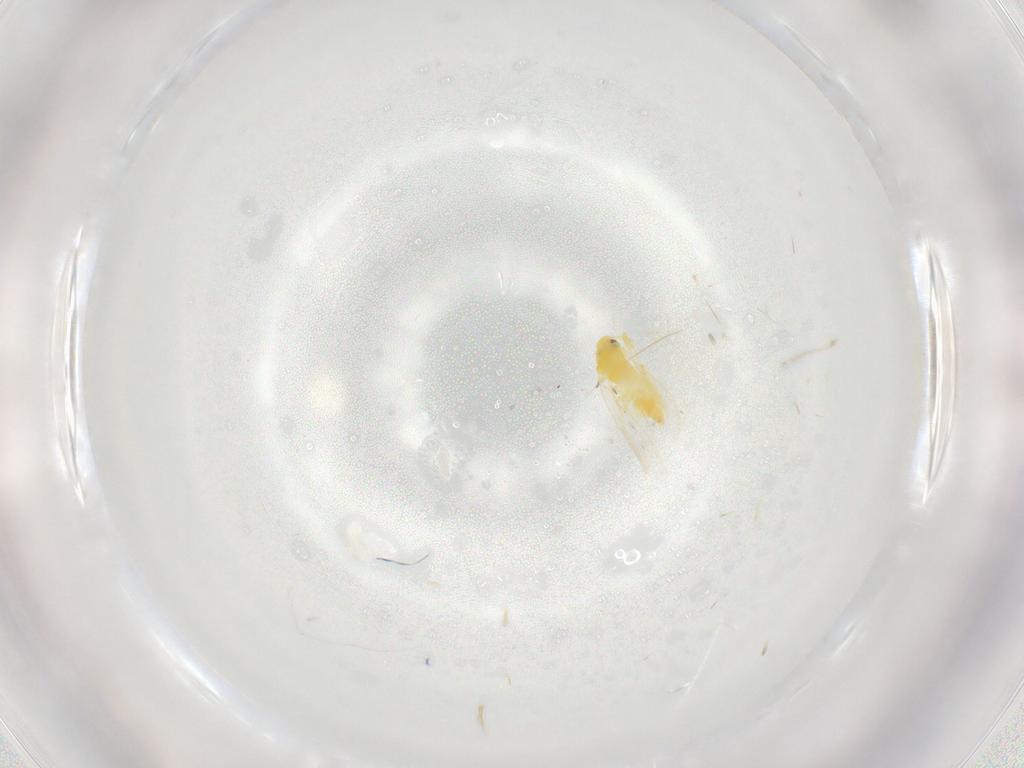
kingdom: Animalia
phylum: Arthropoda
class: Insecta
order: Hemiptera
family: Aleyrodidae
